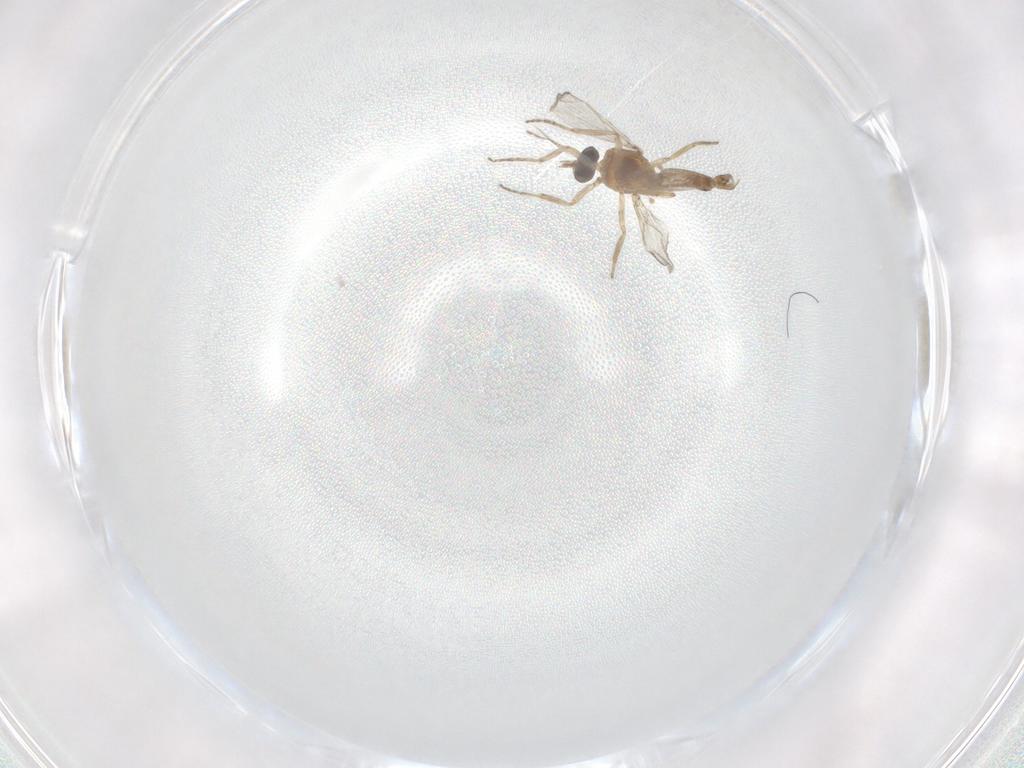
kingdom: Animalia
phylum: Arthropoda
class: Insecta
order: Diptera
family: Ceratopogonidae
